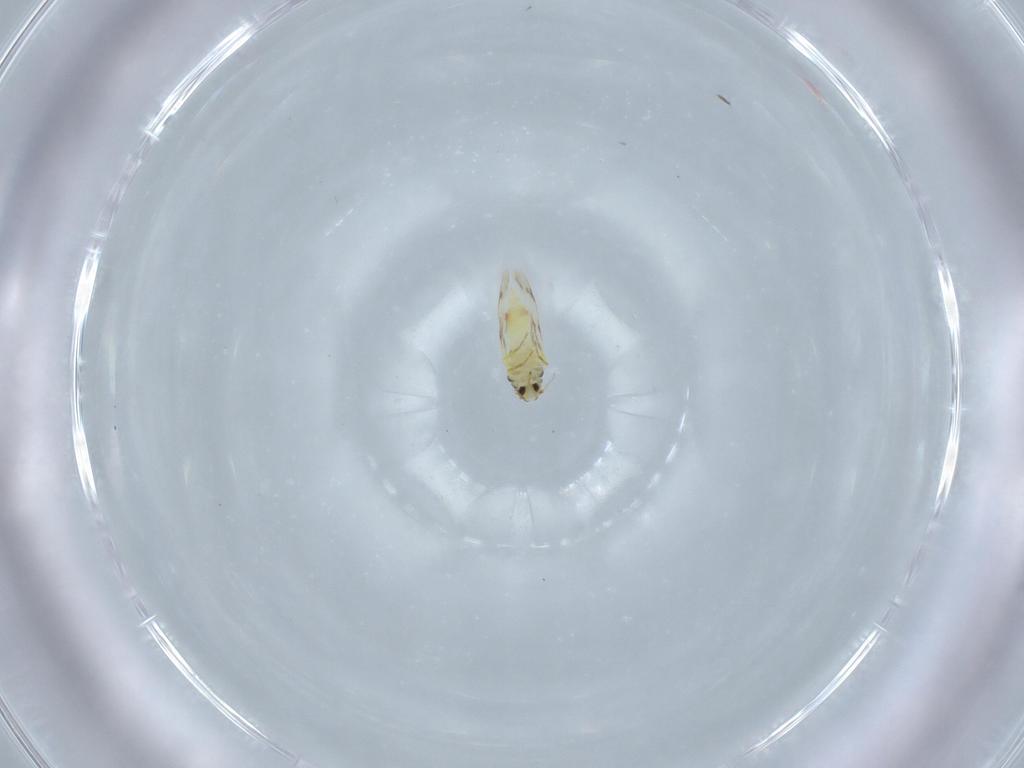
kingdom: Animalia
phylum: Arthropoda
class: Insecta
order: Hemiptera
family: Aleyrodidae
